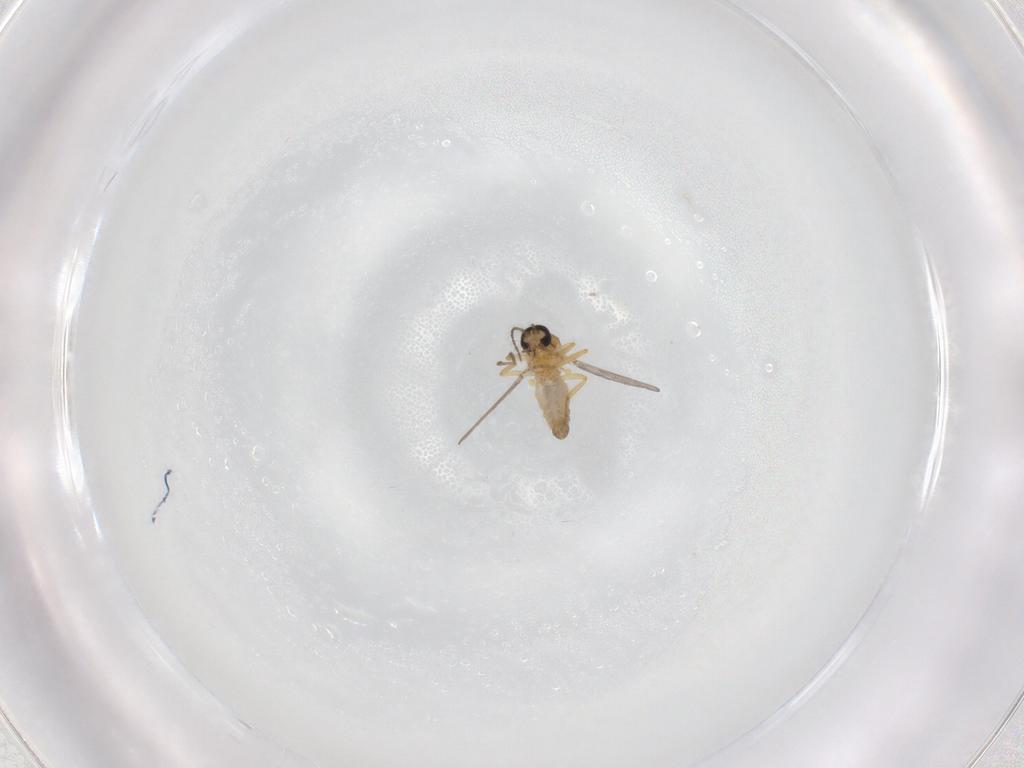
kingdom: Animalia
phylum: Arthropoda
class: Insecta
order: Diptera
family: Ceratopogonidae
